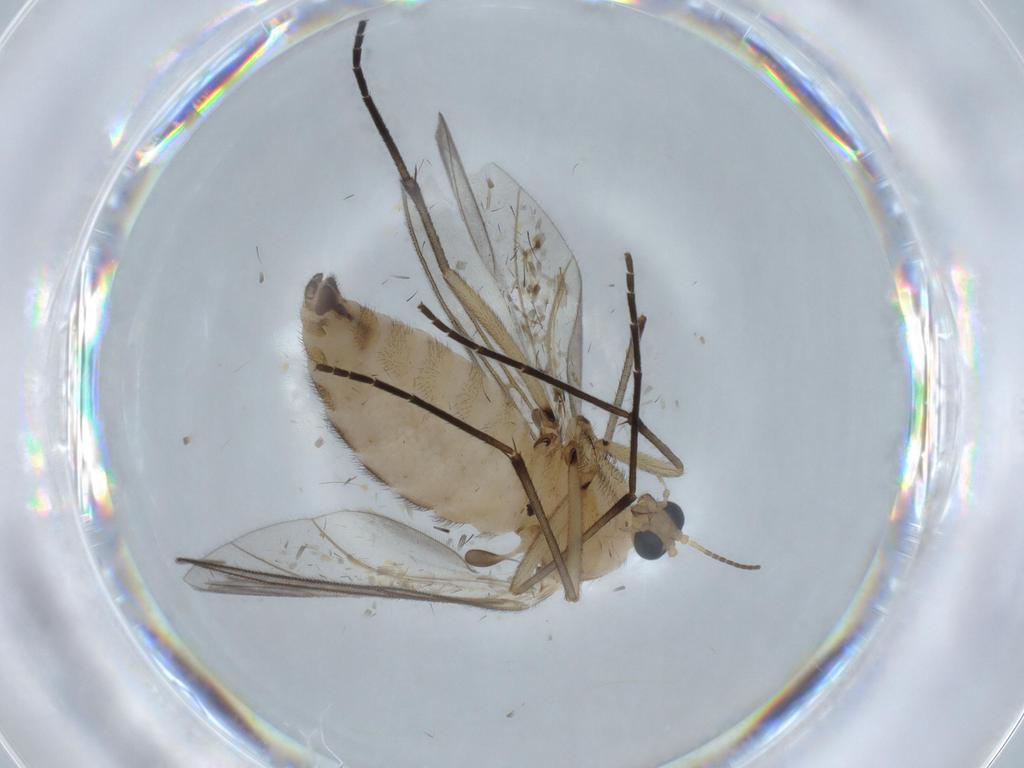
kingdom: Animalia
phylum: Arthropoda
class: Insecta
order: Diptera
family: Sciaridae
